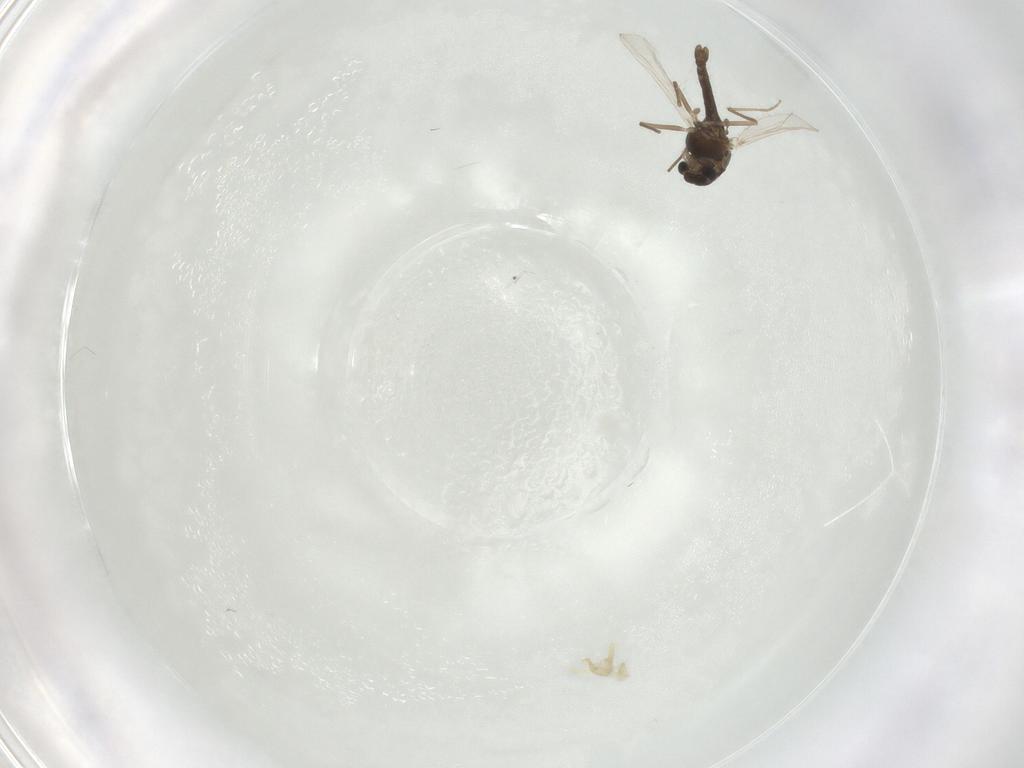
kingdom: Animalia
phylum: Arthropoda
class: Insecta
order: Diptera
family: Chironomidae
